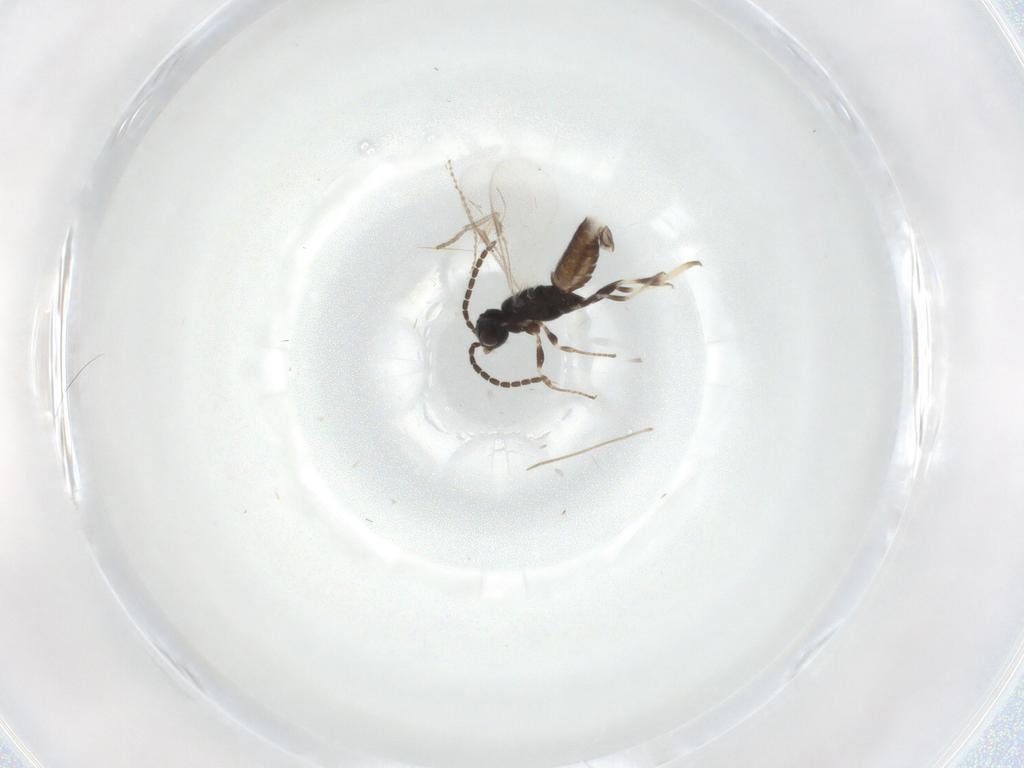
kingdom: Animalia
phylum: Arthropoda
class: Insecta
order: Hymenoptera
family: Dryinidae
